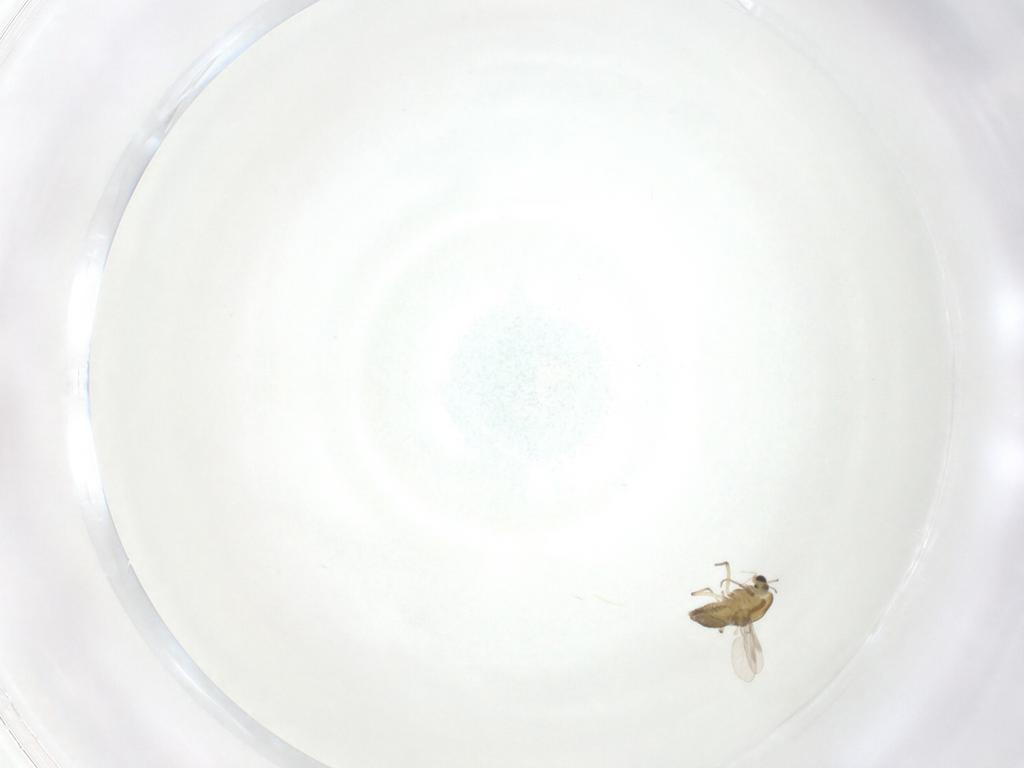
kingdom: Animalia
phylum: Arthropoda
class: Insecta
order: Diptera
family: Chironomidae
